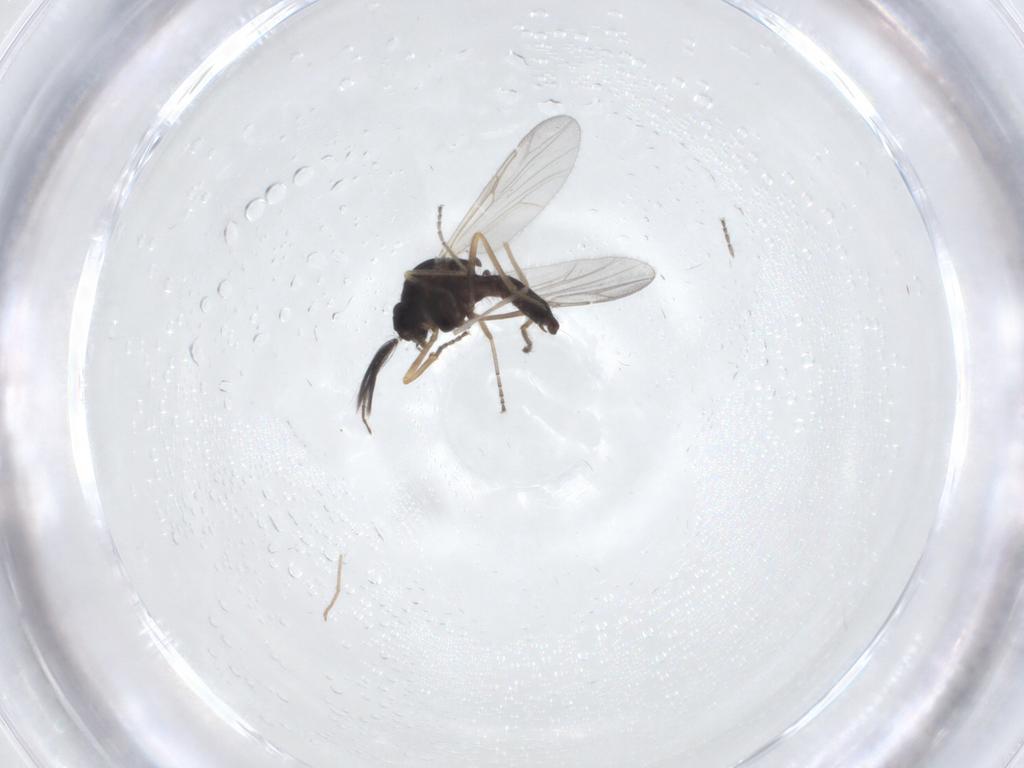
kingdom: Animalia
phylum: Arthropoda
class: Insecta
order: Diptera
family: Ceratopogonidae
